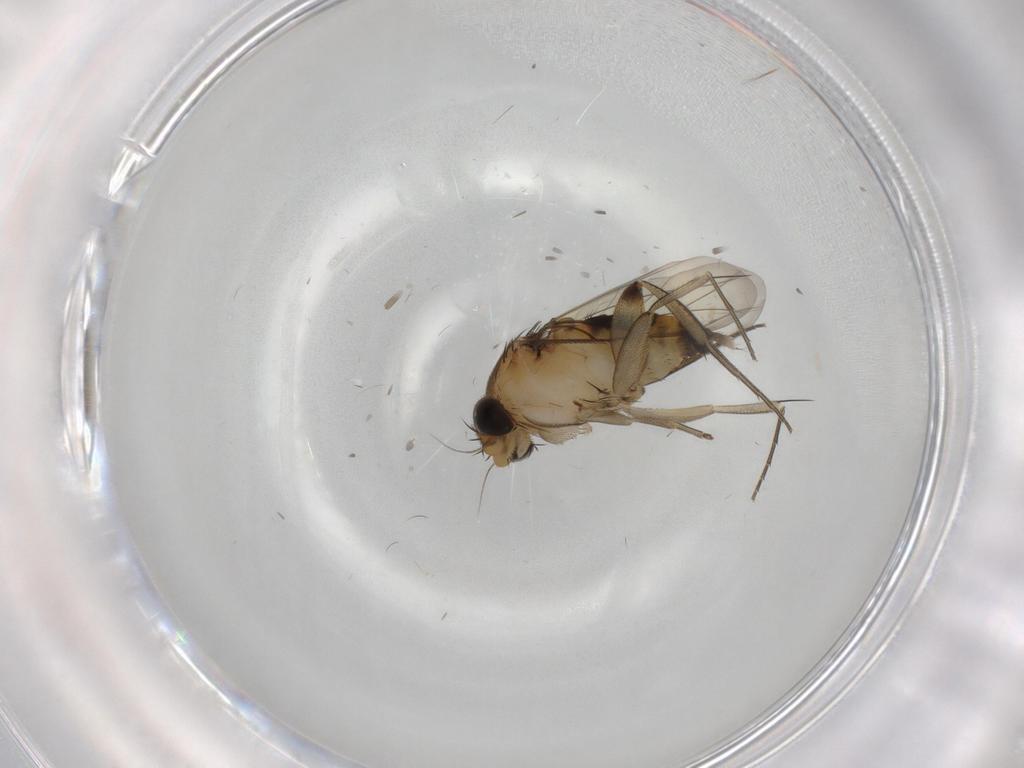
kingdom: Animalia
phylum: Arthropoda
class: Insecta
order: Diptera
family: Phoridae
